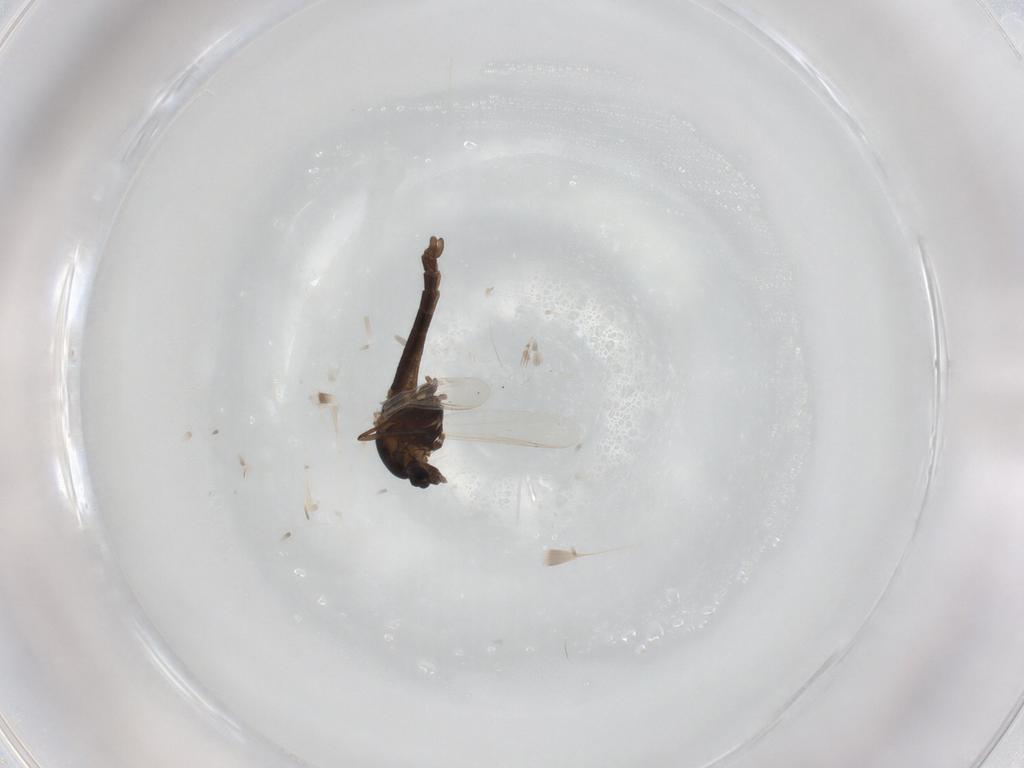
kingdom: Animalia
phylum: Arthropoda
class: Insecta
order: Diptera
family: Chironomidae
